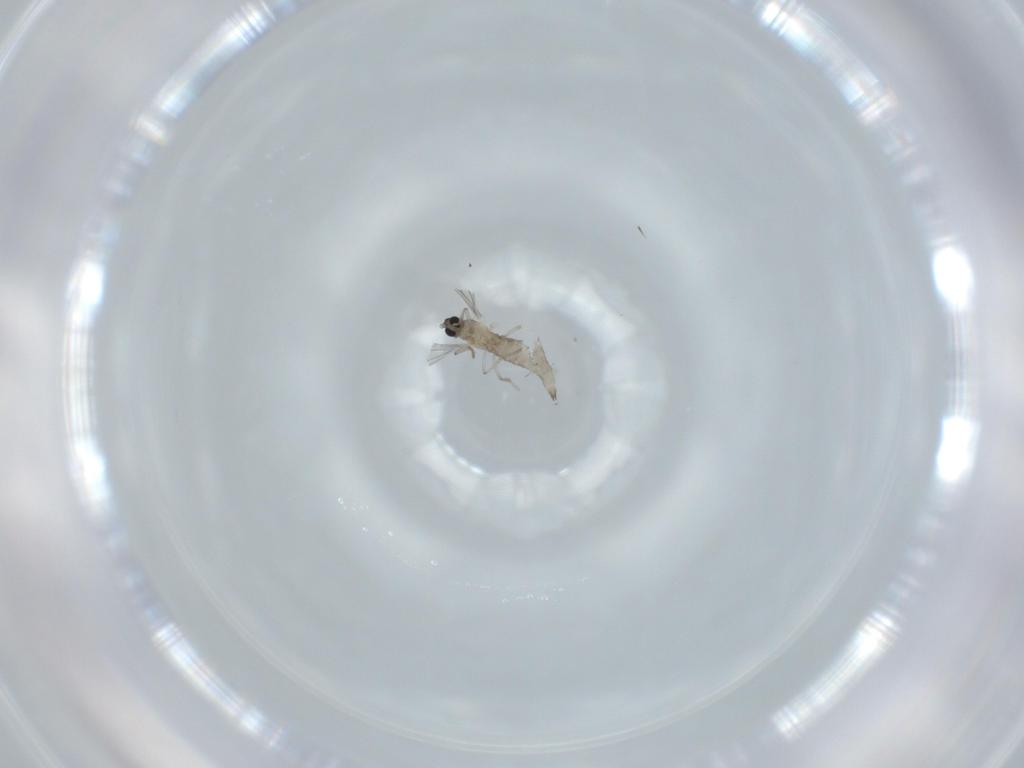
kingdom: Animalia
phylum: Arthropoda
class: Insecta
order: Diptera
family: Cecidomyiidae
